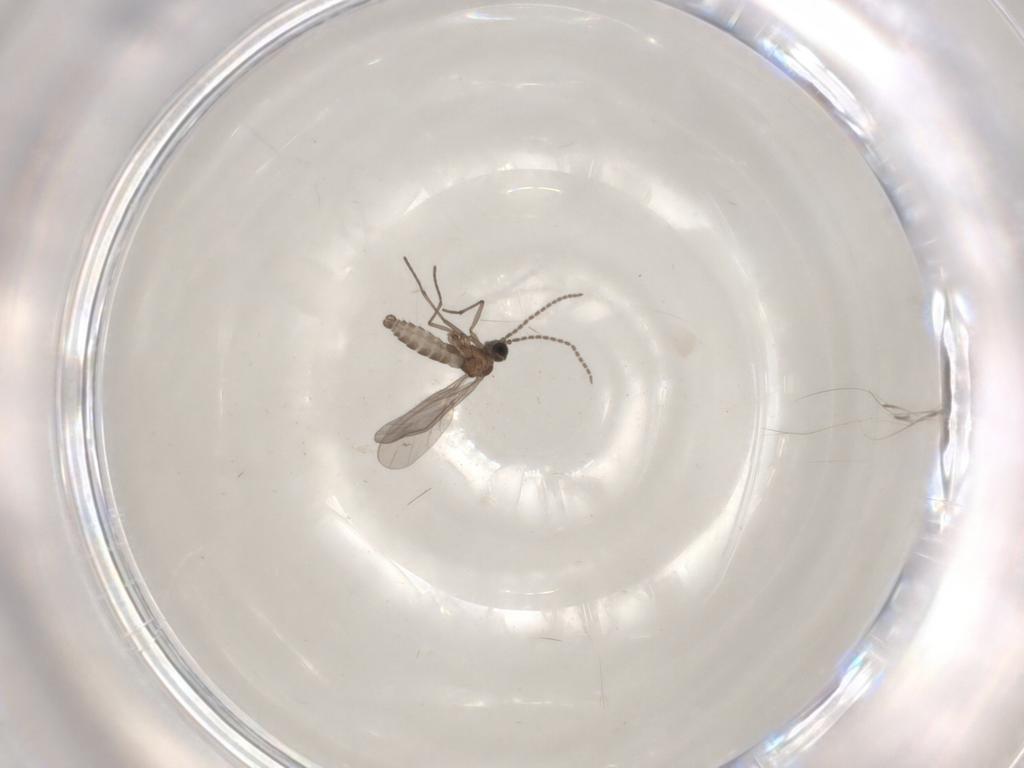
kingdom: Animalia
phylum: Arthropoda
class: Insecta
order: Diptera
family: Sciaridae
